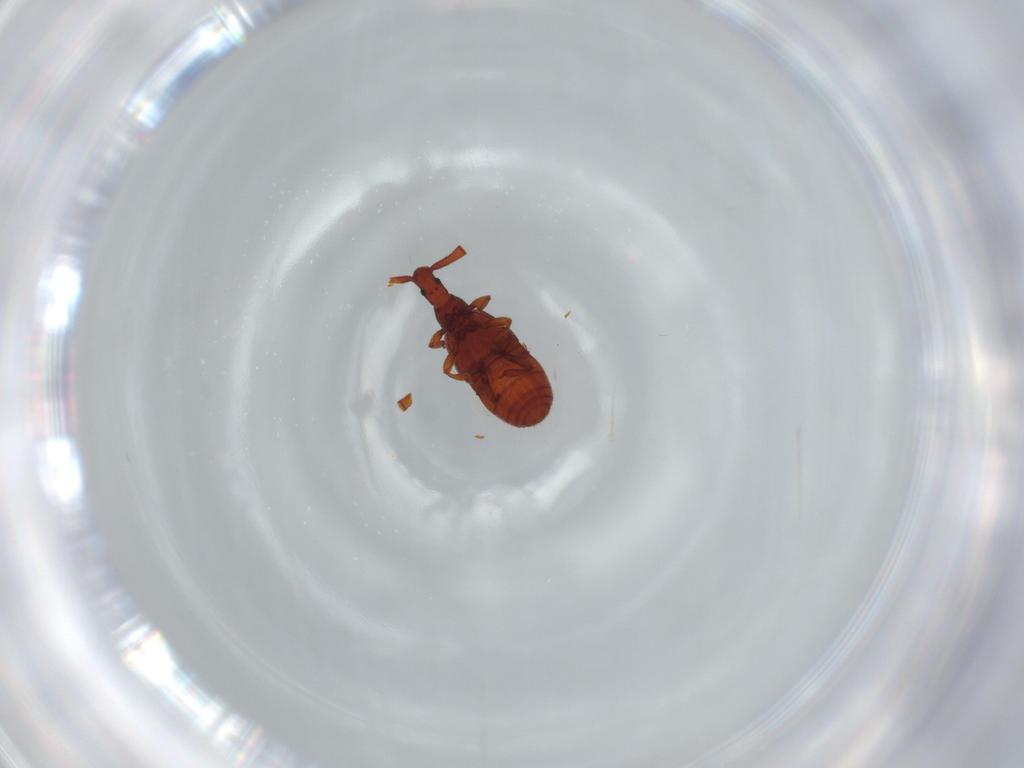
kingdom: Animalia
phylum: Arthropoda
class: Insecta
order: Coleoptera
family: Staphylinidae
